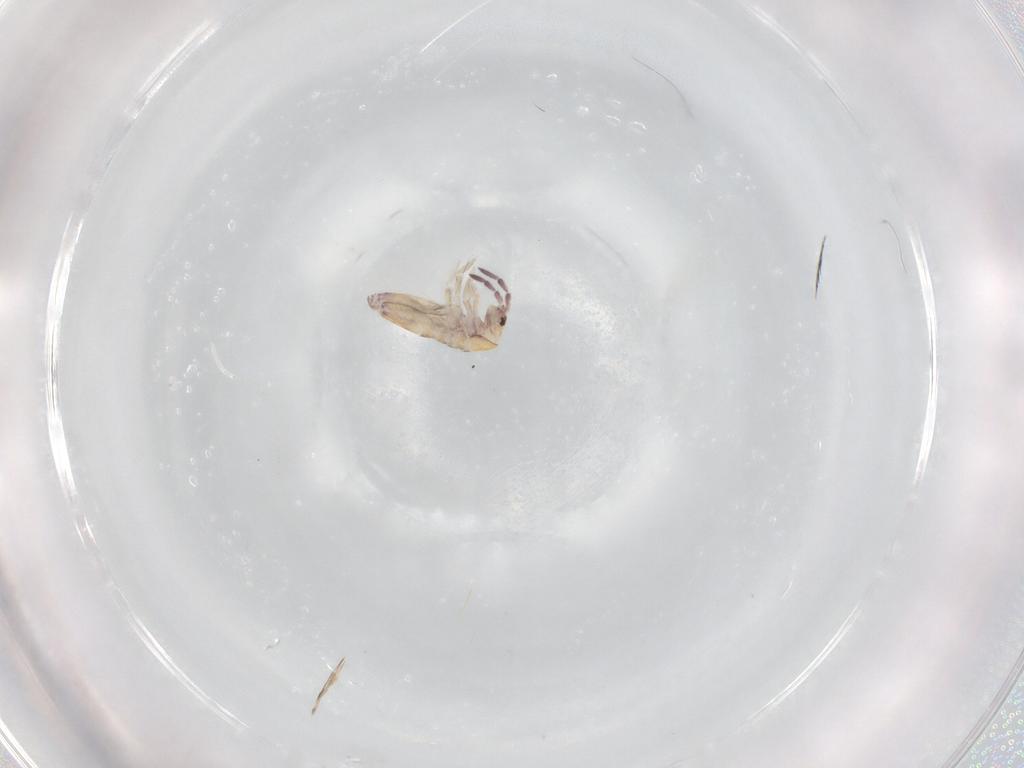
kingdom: Animalia
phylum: Arthropoda
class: Collembola
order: Entomobryomorpha
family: Entomobryidae
